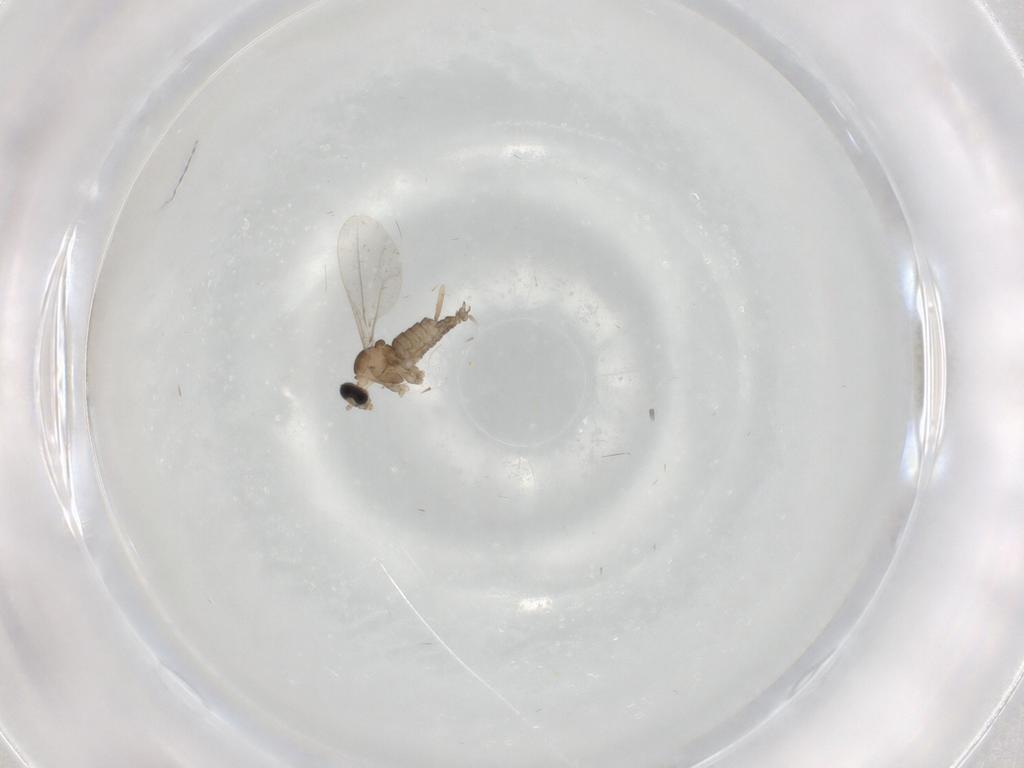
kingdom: Animalia
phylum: Arthropoda
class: Insecta
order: Diptera
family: Cecidomyiidae
